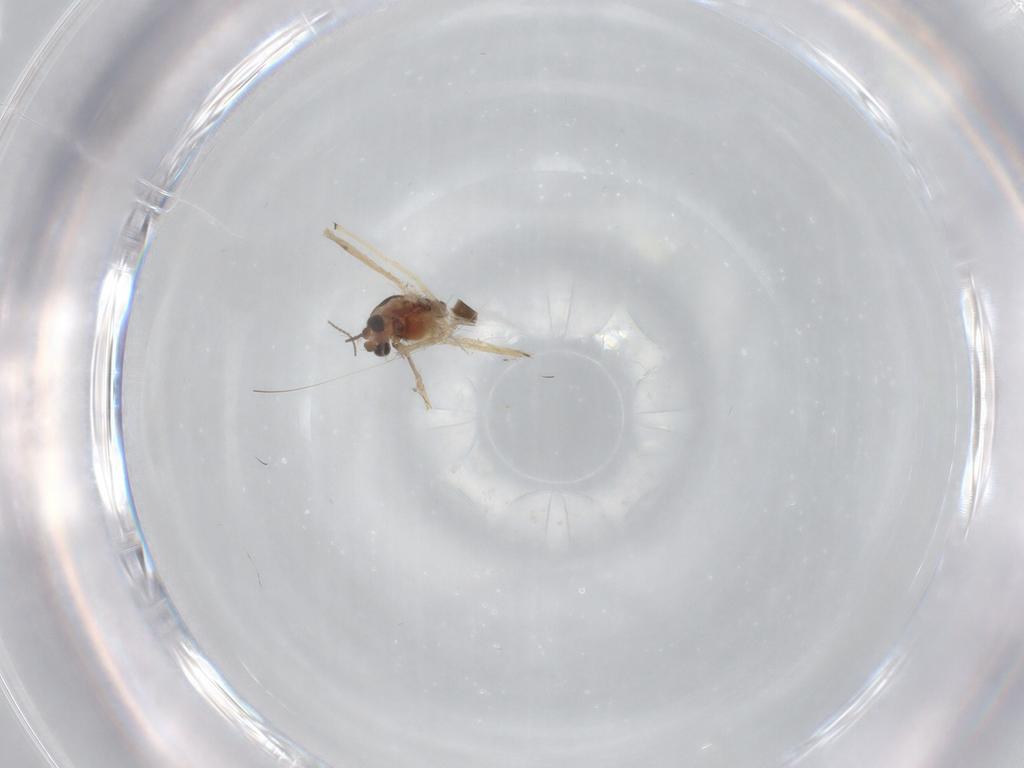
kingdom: Animalia
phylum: Arthropoda
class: Insecta
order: Diptera
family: Chironomidae
